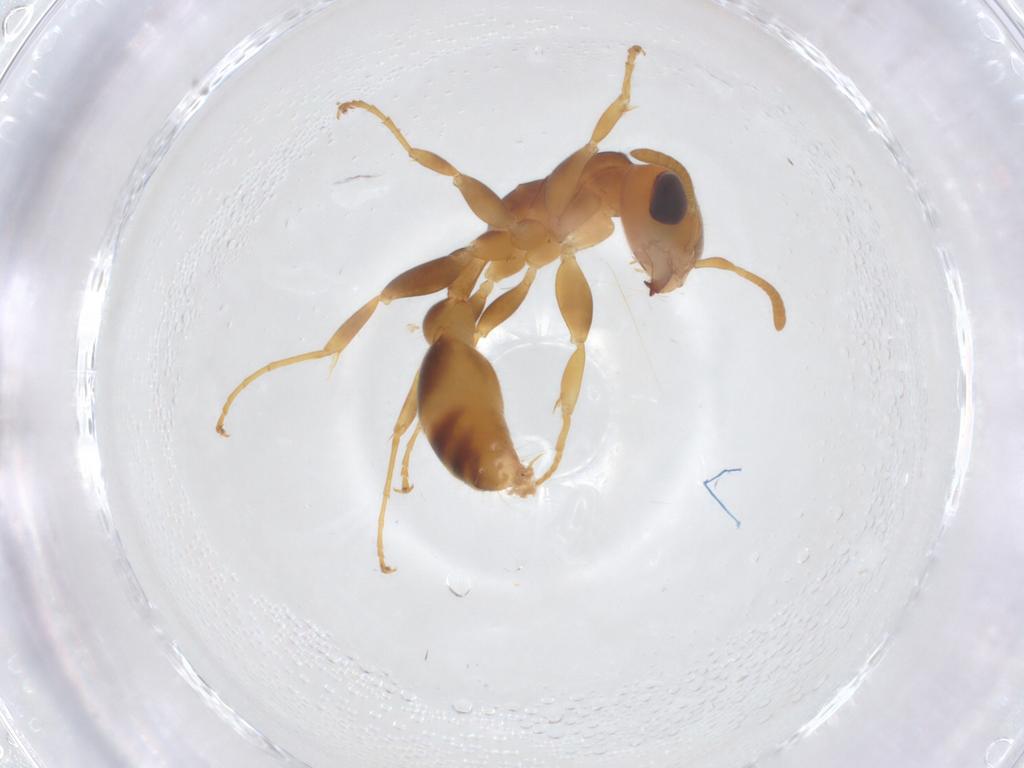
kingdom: Animalia
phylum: Arthropoda
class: Insecta
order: Hymenoptera
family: Formicidae
